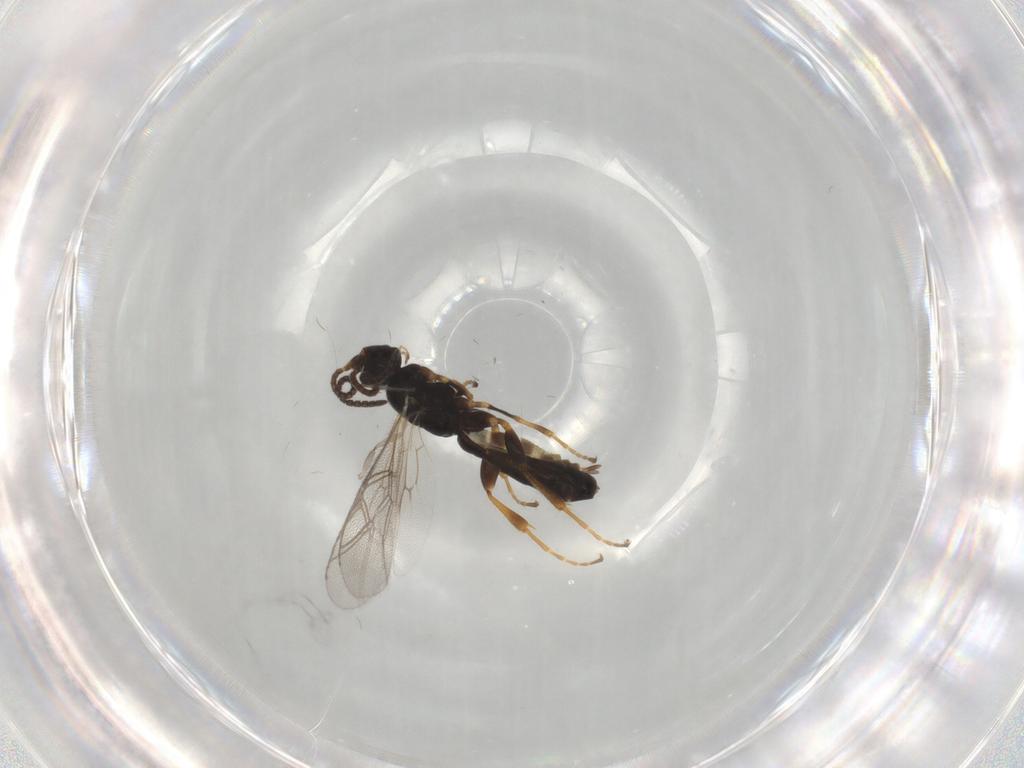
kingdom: Animalia
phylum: Arthropoda
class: Insecta
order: Hymenoptera
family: Ichneumonidae
